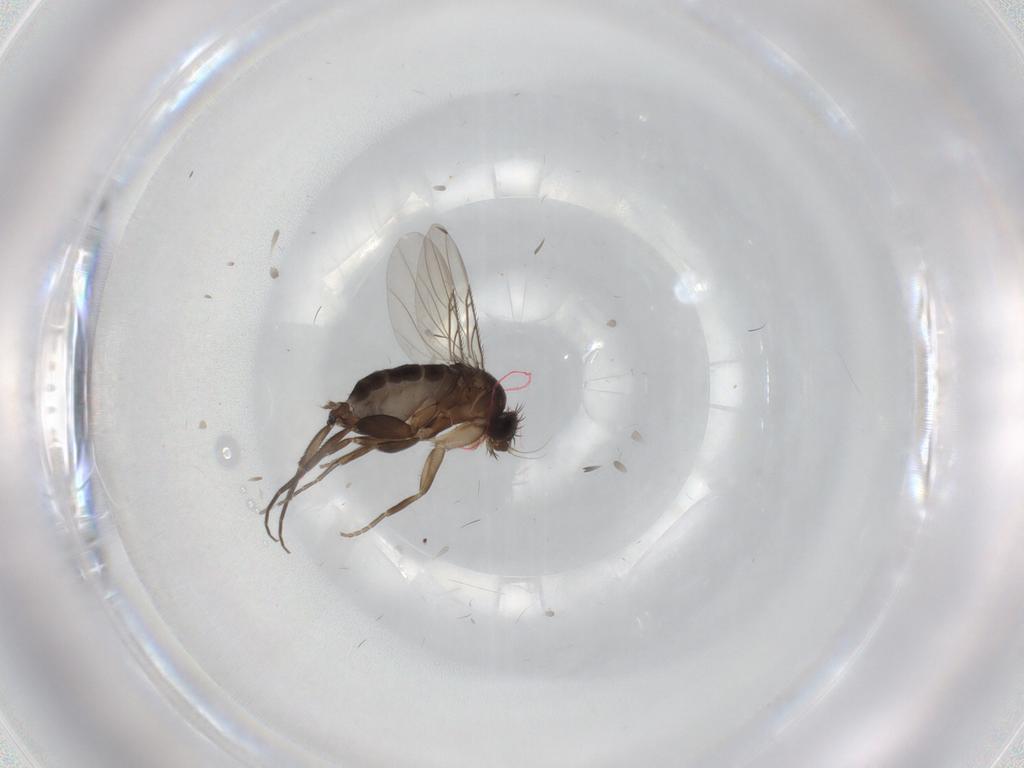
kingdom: Animalia
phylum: Arthropoda
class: Insecta
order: Diptera
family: Phoridae
